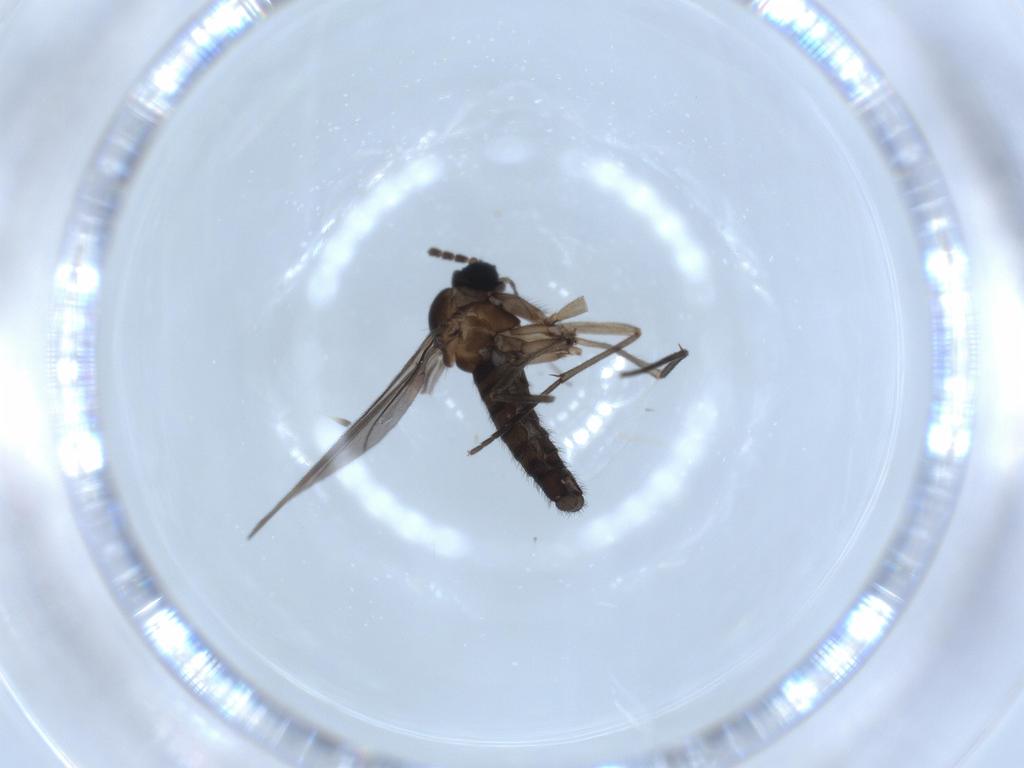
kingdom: Animalia
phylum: Arthropoda
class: Insecta
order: Diptera
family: Sciaridae
